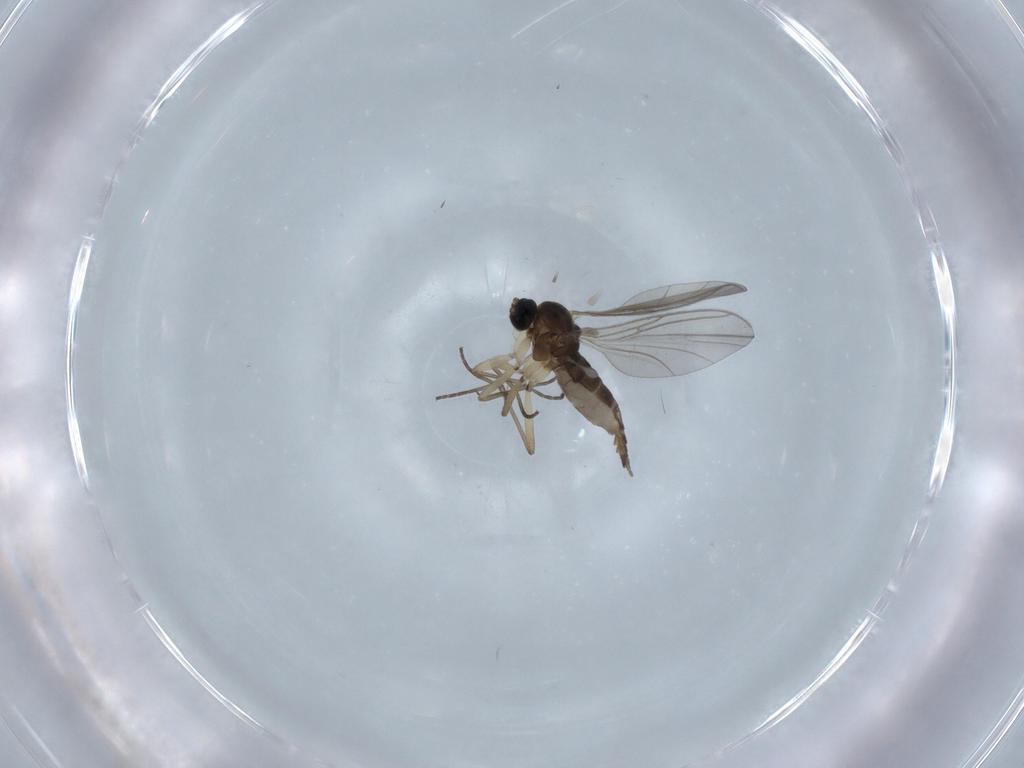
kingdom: Animalia
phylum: Arthropoda
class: Insecta
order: Diptera
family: Sciaridae
